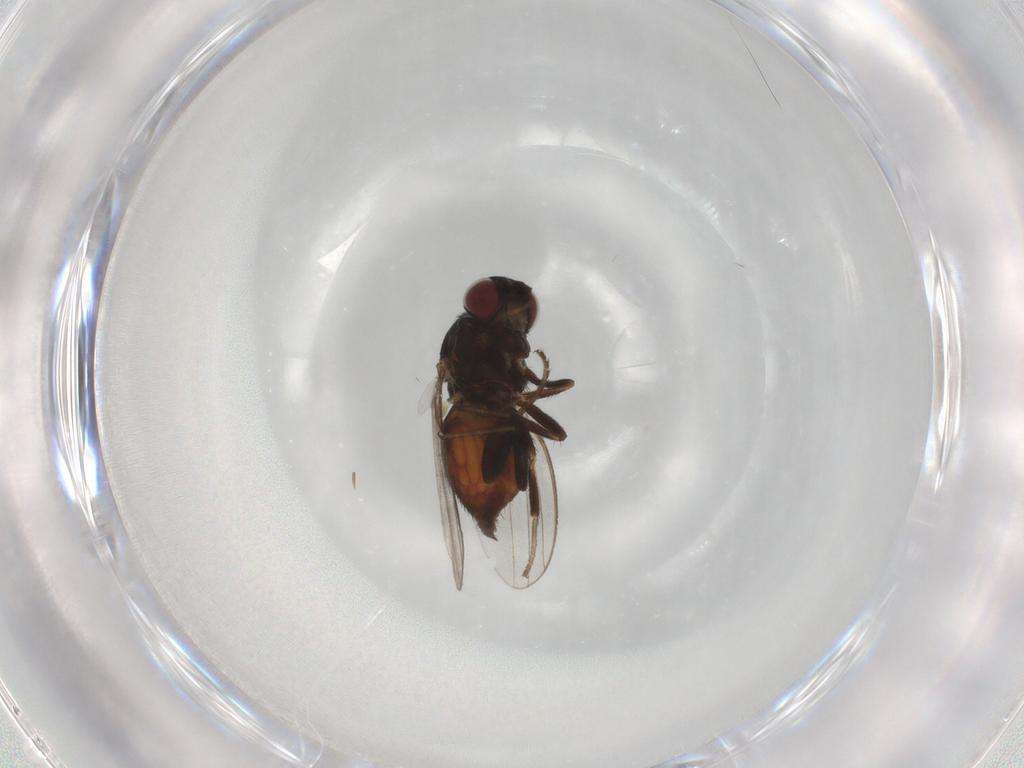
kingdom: Animalia
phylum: Arthropoda
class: Insecta
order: Diptera
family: Milichiidae
